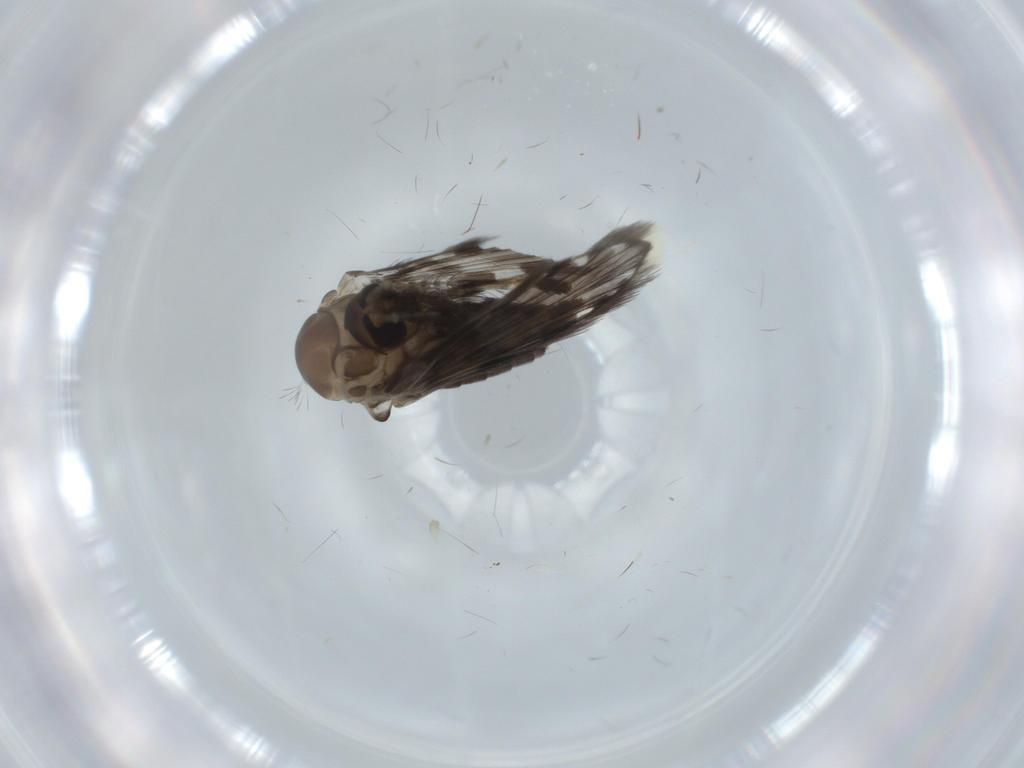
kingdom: Animalia
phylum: Arthropoda
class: Insecta
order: Diptera
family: Psychodidae
